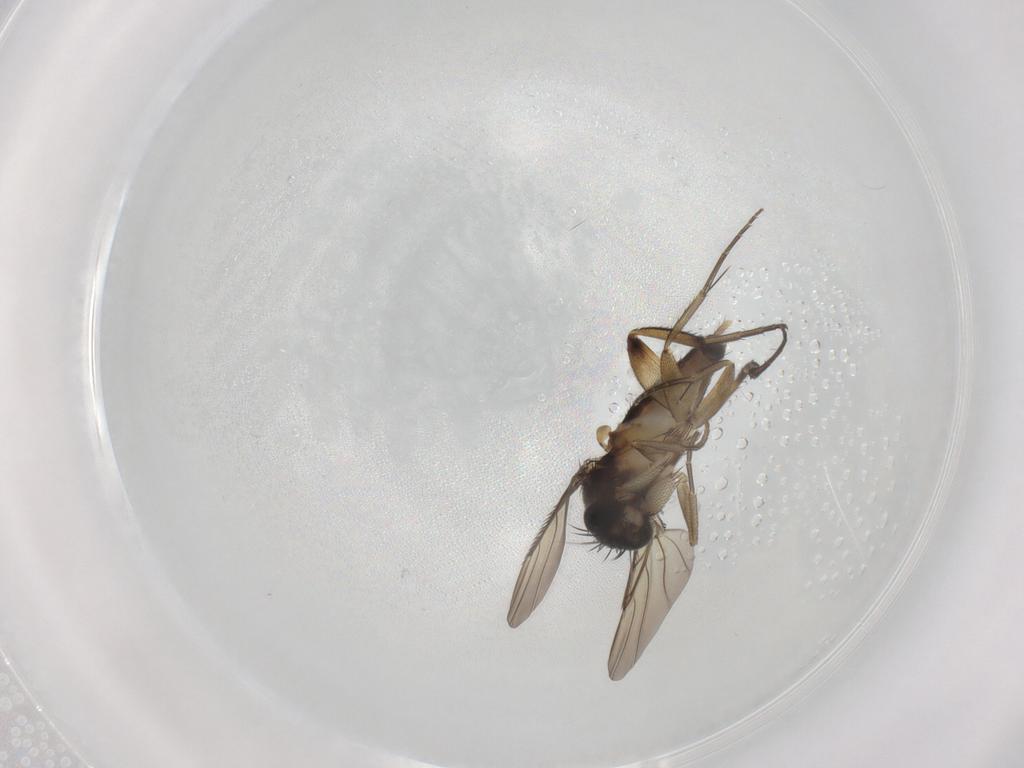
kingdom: Animalia
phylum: Arthropoda
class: Insecta
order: Diptera
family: Phoridae
